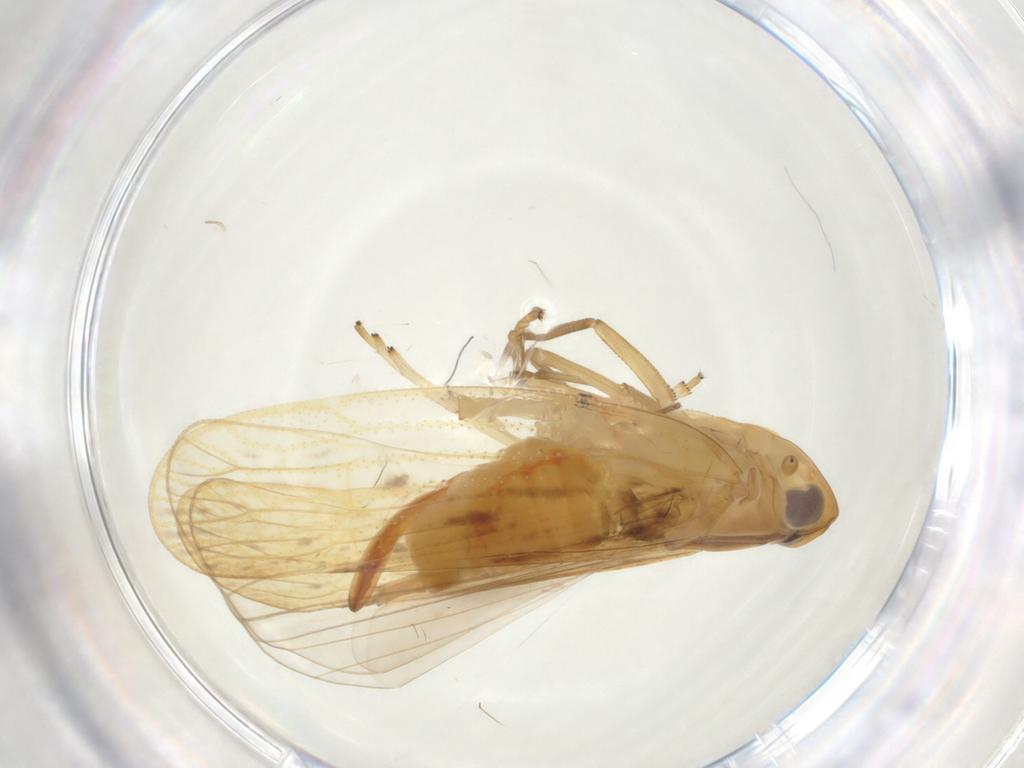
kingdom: Animalia
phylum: Arthropoda
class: Insecta
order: Hemiptera
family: Cixiidae
